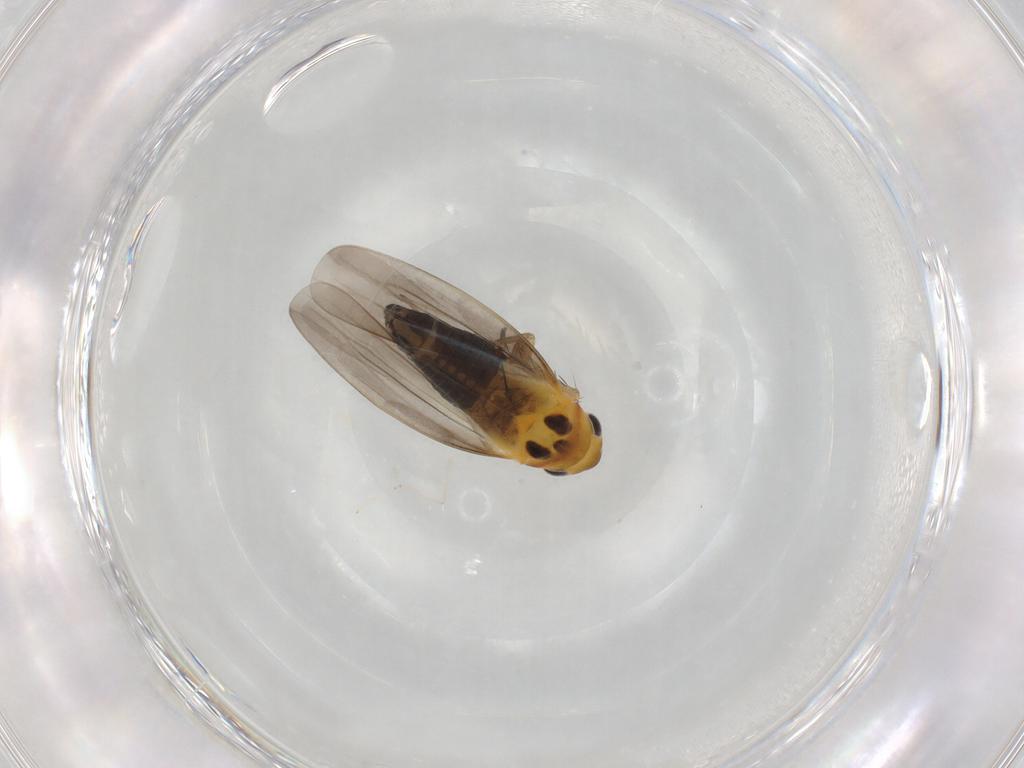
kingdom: Animalia
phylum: Arthropoda
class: Insecta
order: Hemiptera
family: Cicadellidae
